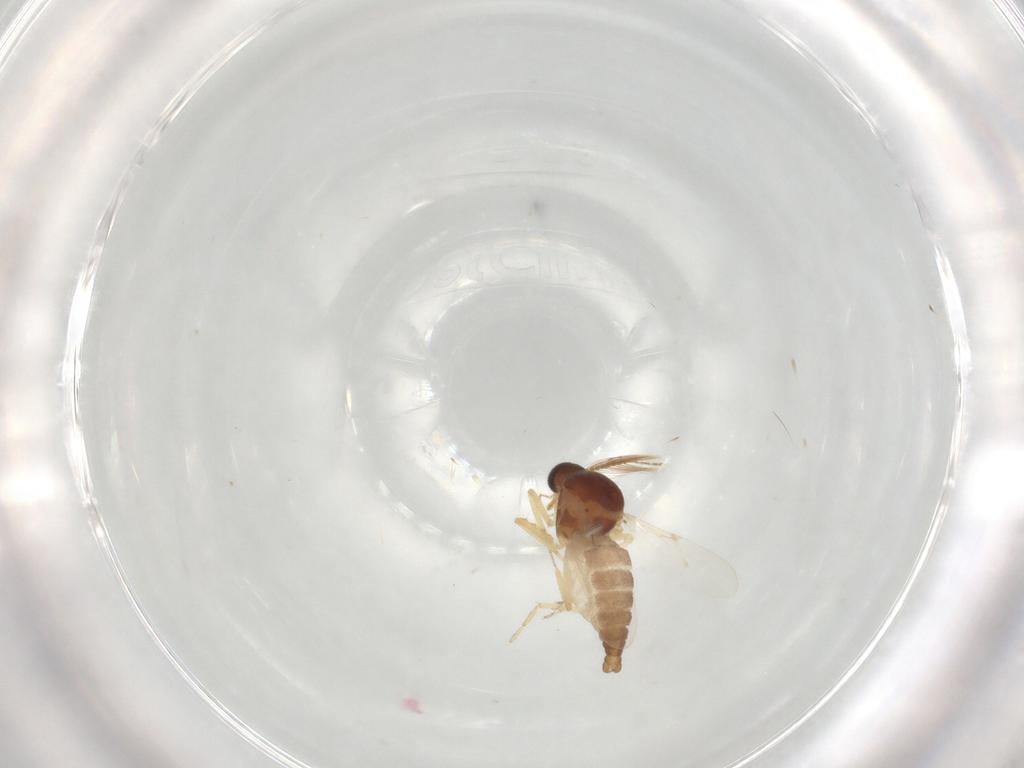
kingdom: Animalia
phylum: Arthropoda
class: Insecta
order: Diptera
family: Ceratopogonidae
